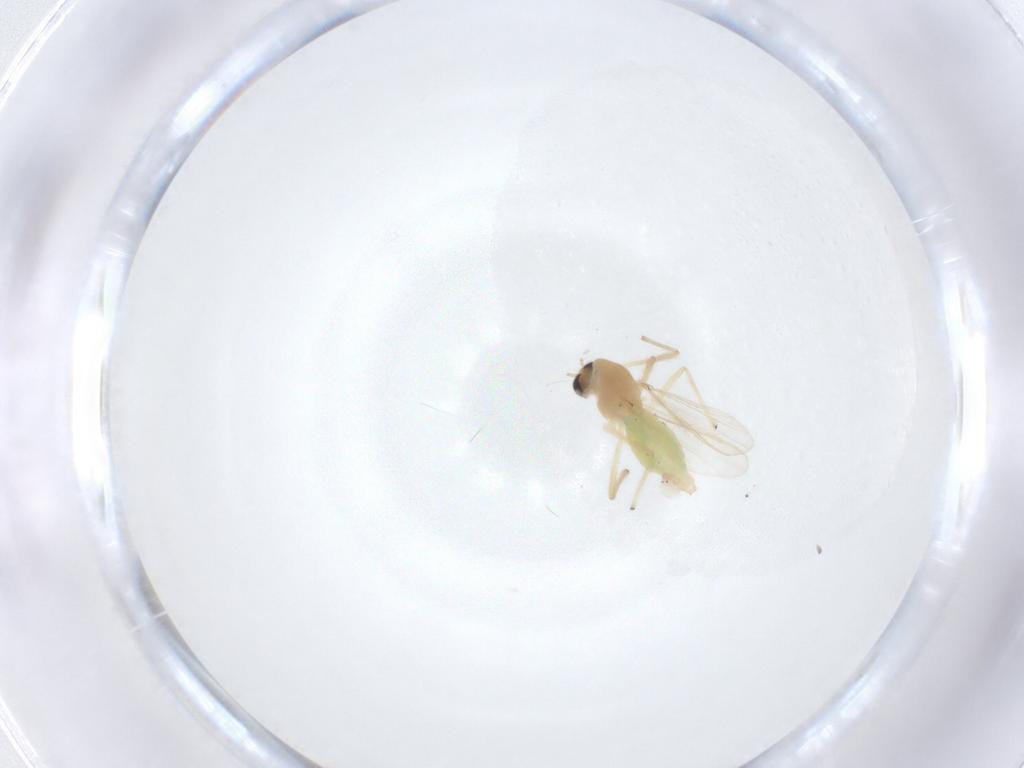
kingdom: Animalia
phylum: Arthropoda
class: Insecta
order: Diptera
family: Chironomidae
